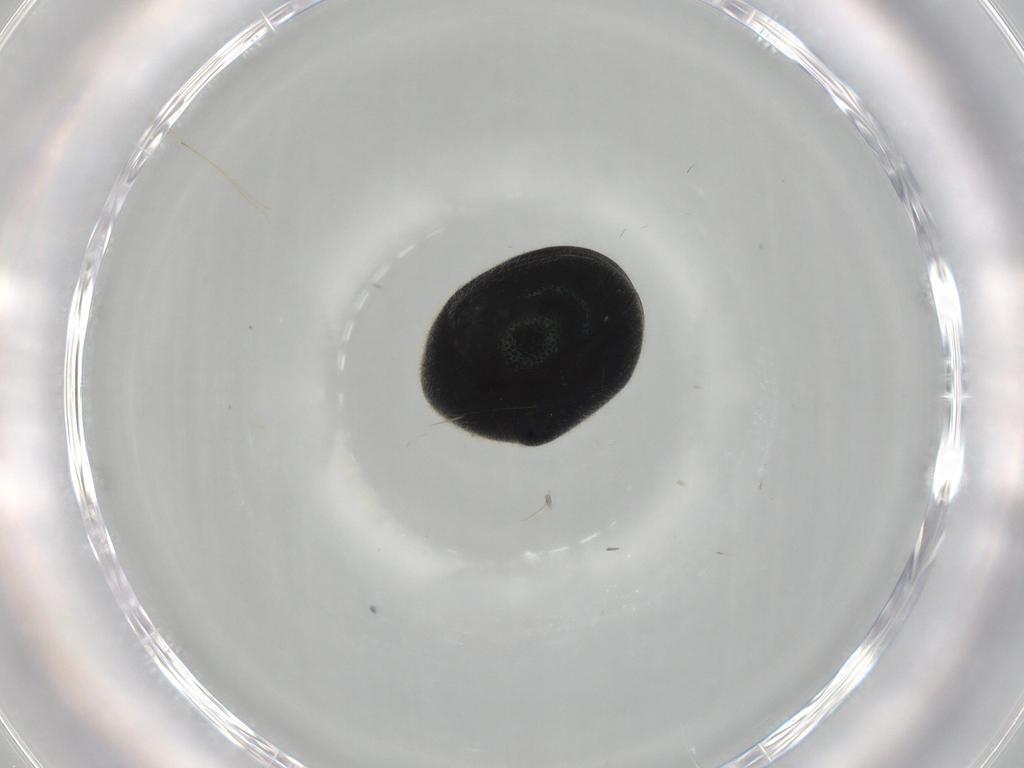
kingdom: Animalia
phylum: Arthropoda
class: Insecta
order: Coleoptera
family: Ptinidae
